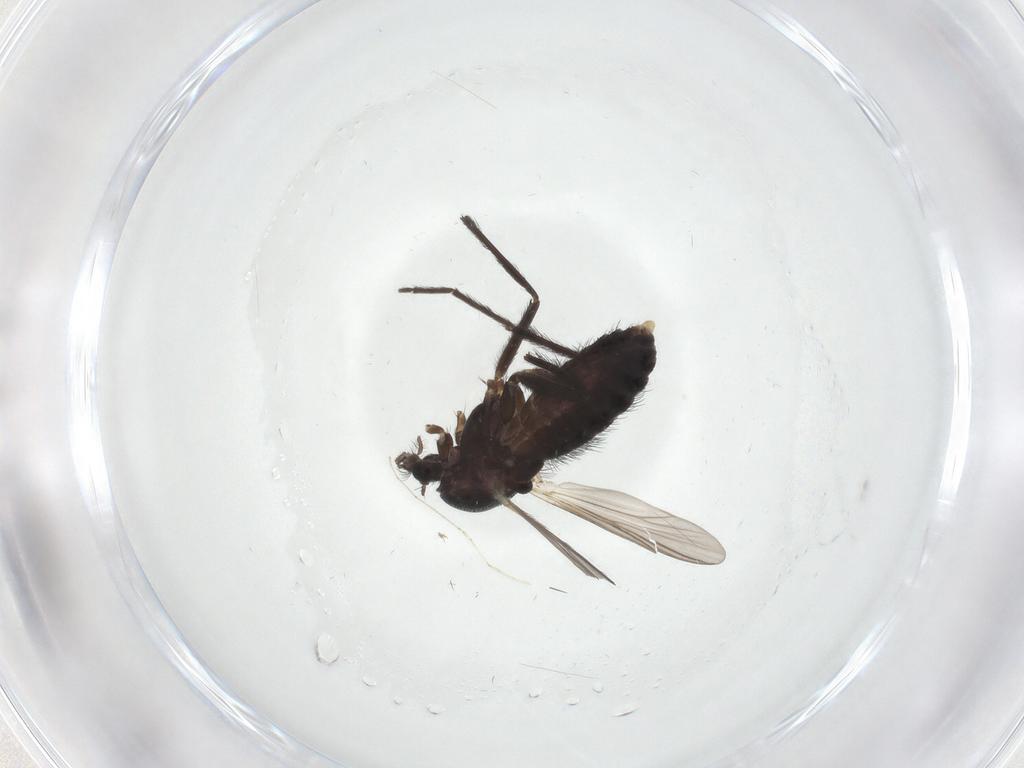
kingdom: Animalia
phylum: Arthropoda
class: Insecta
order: Diptera
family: Chironomidae
